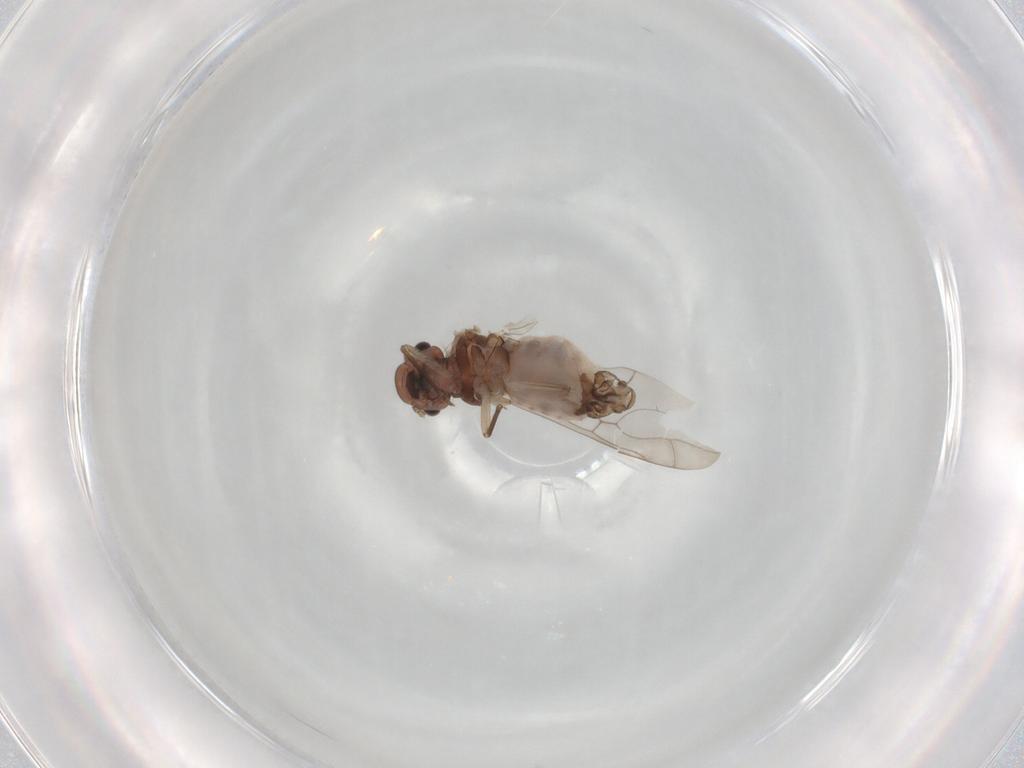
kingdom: Animalia
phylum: Arthropoda
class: Insecta
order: Psocodea
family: Peripsocidae
